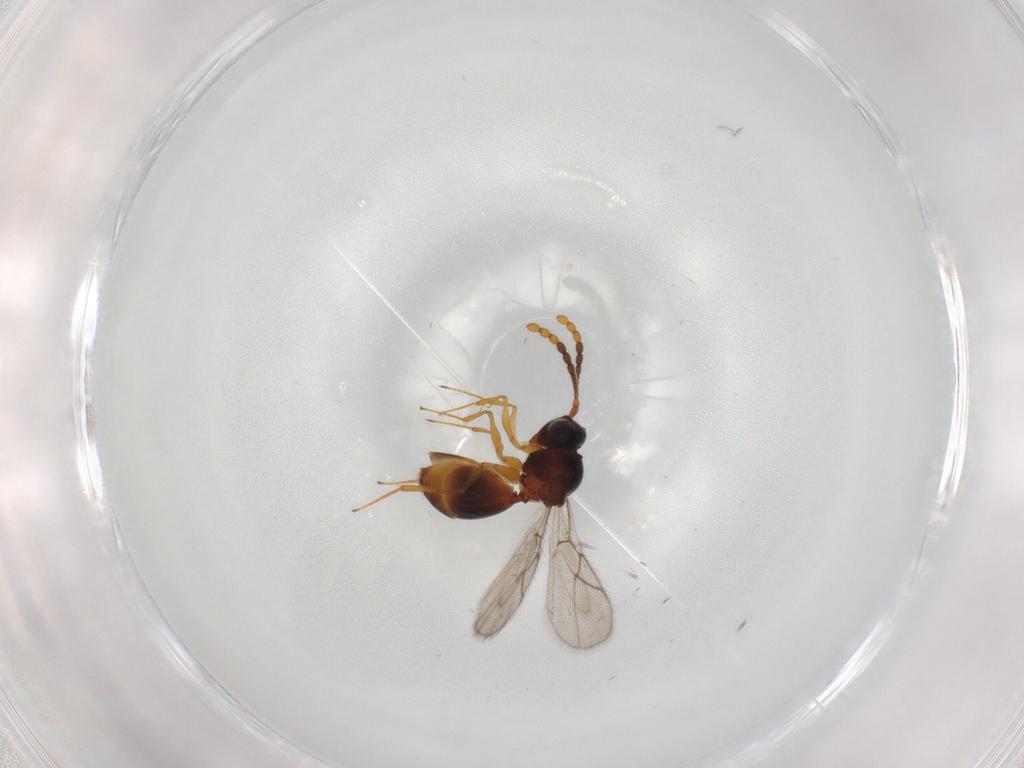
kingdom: Animalia
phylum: Arthropoda
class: Insecta
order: Hymenoptera
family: Figitidae
